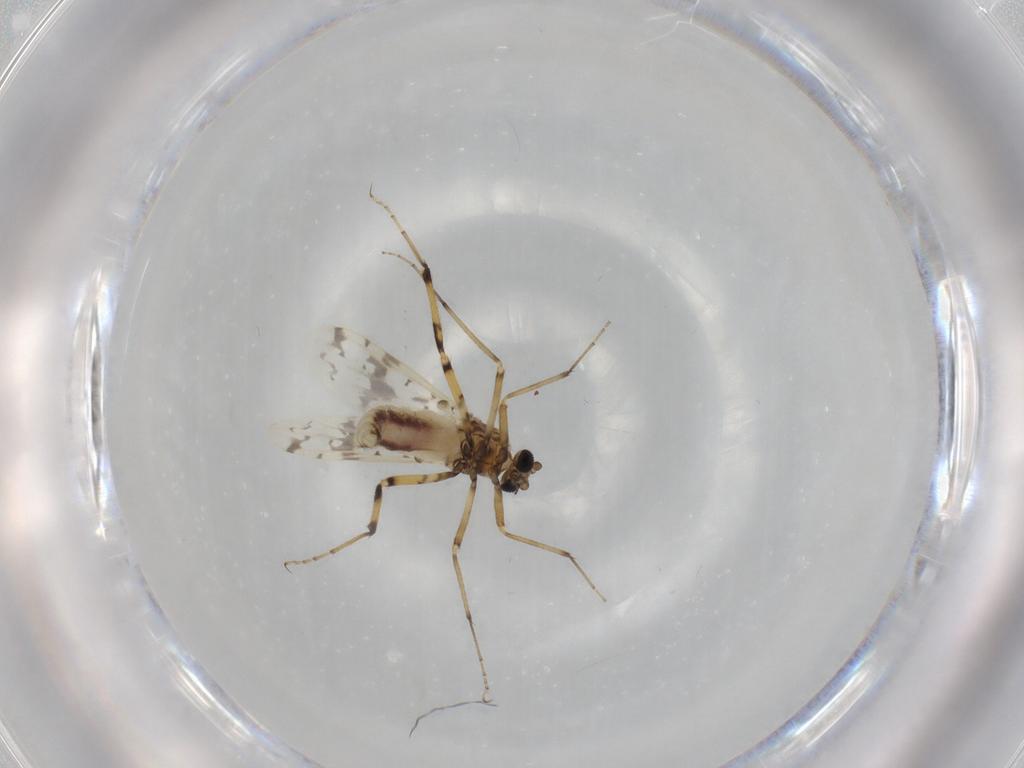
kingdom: Animalia
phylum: Arthropoda
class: Insecta
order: Diptera
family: Ceratopogonidae
